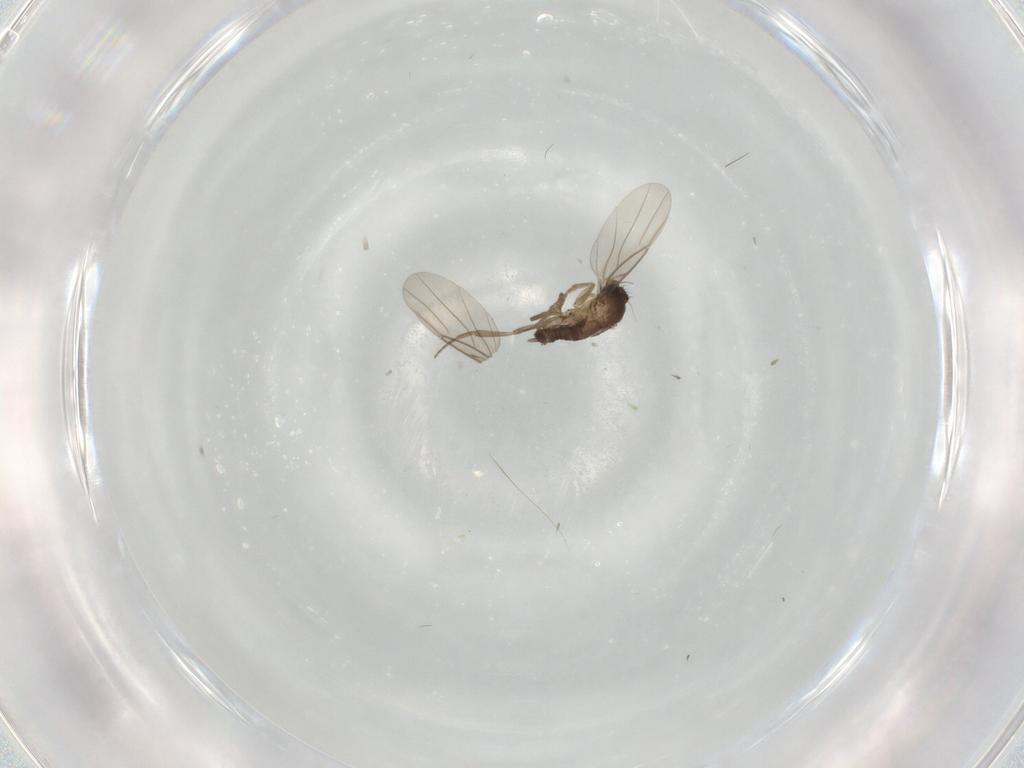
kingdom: Animalia
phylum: Arthropoda
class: Insecta
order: Diptera
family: Chironomidae
